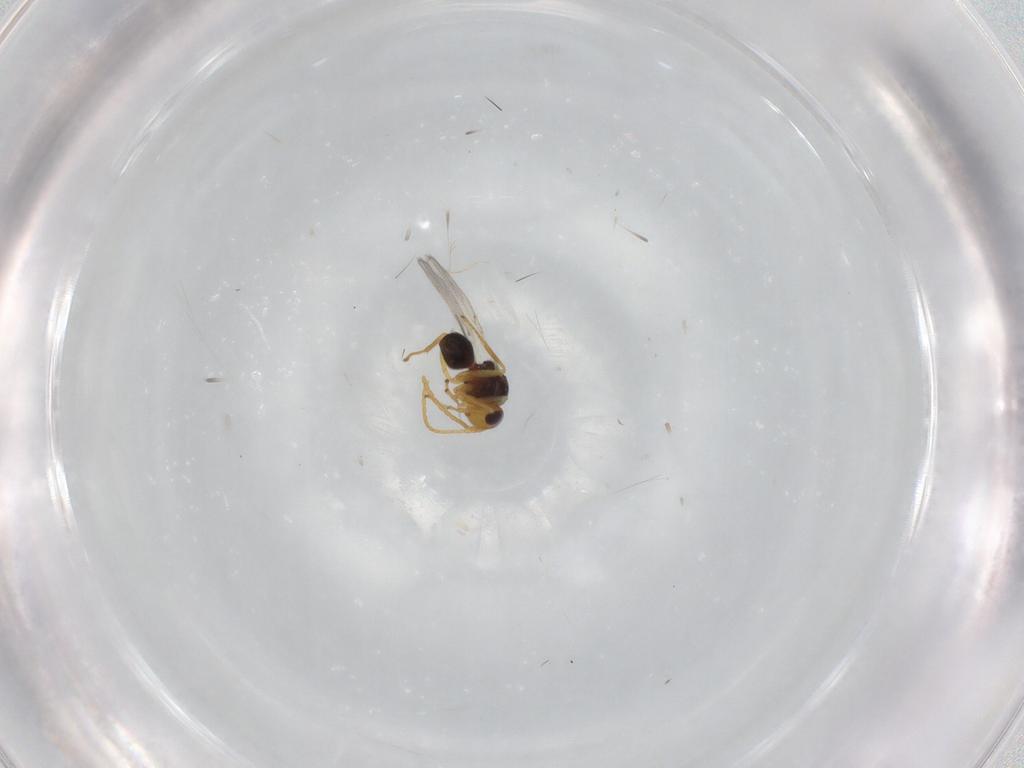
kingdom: Animalia
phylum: Arthropoda
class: Insecta
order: Hymenoptera
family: Figitidae
